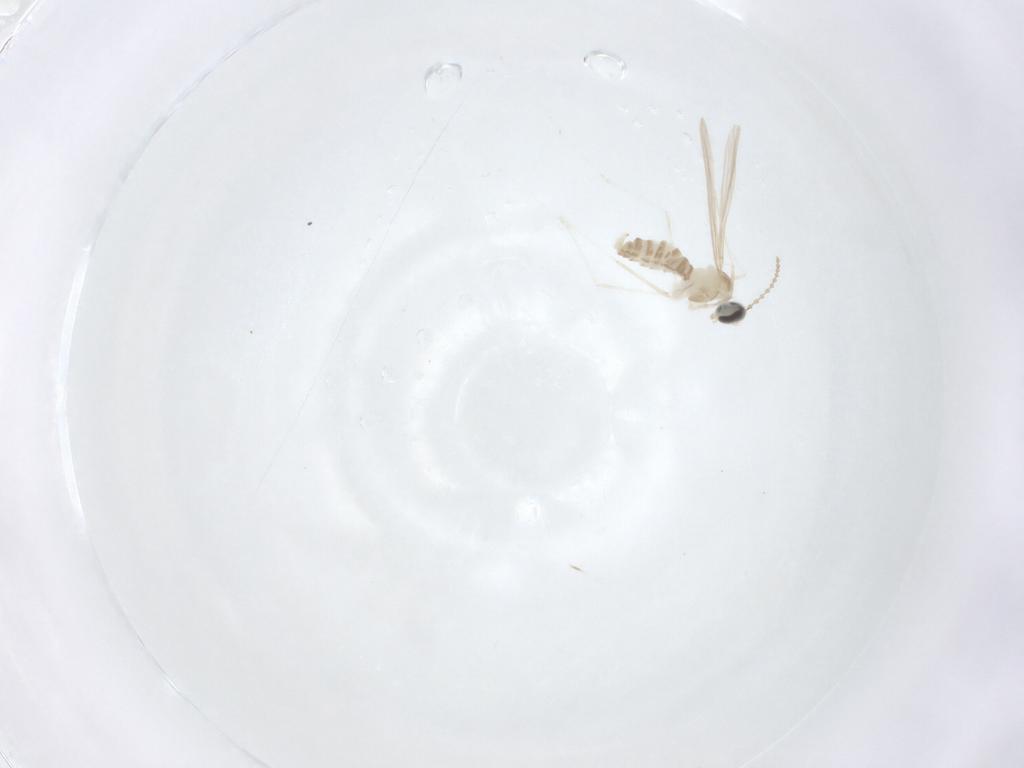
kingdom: Animalia
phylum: Arthropoda
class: Insecta
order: Diptera
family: Cecidomyiidae
